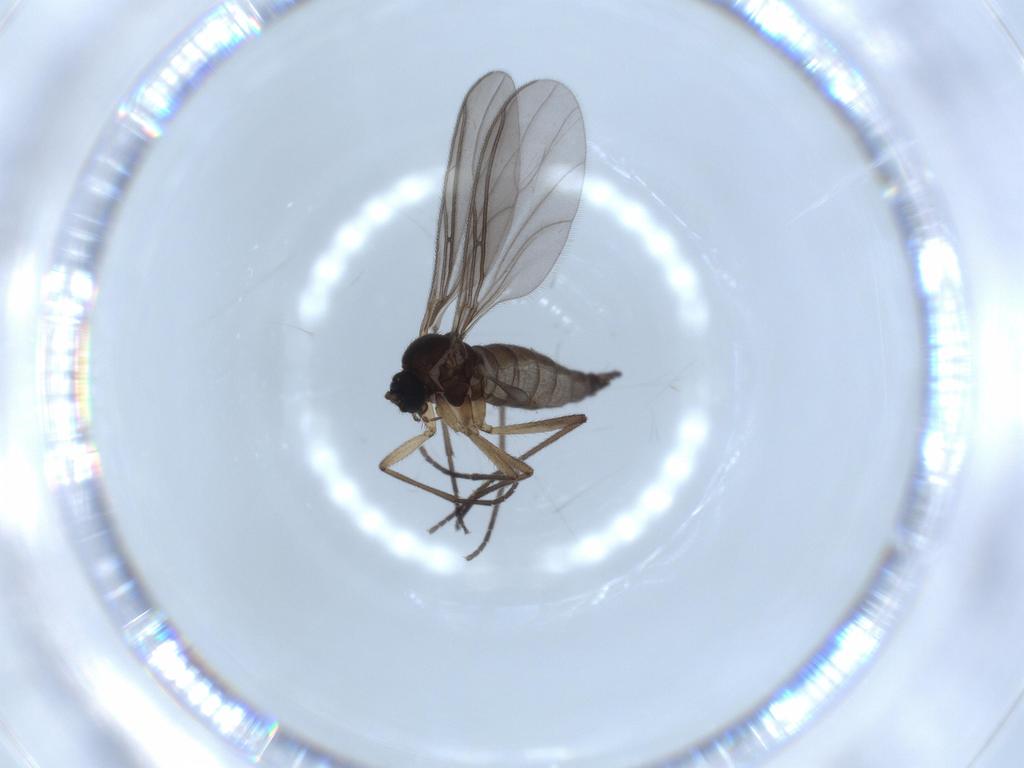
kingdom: Animalia
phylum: Arthropoda
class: Insecta
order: Diptera
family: Sciaridae
